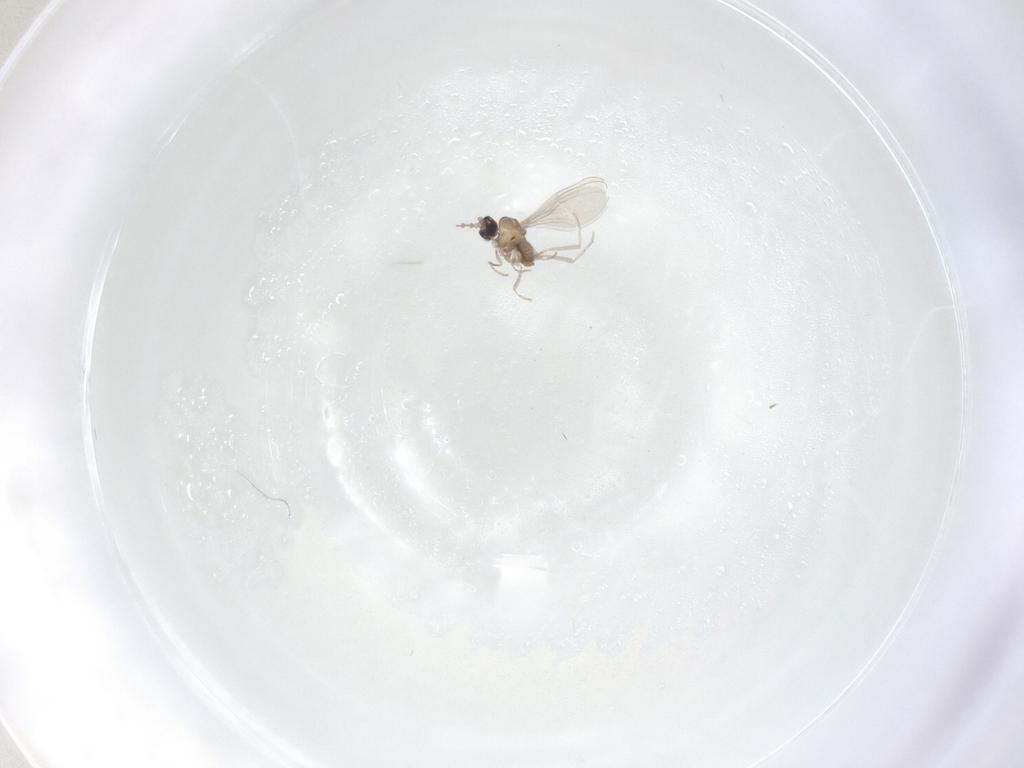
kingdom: Animalia
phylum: Arthropoda
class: Insecta
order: Diptera
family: Cecidomyiidae
